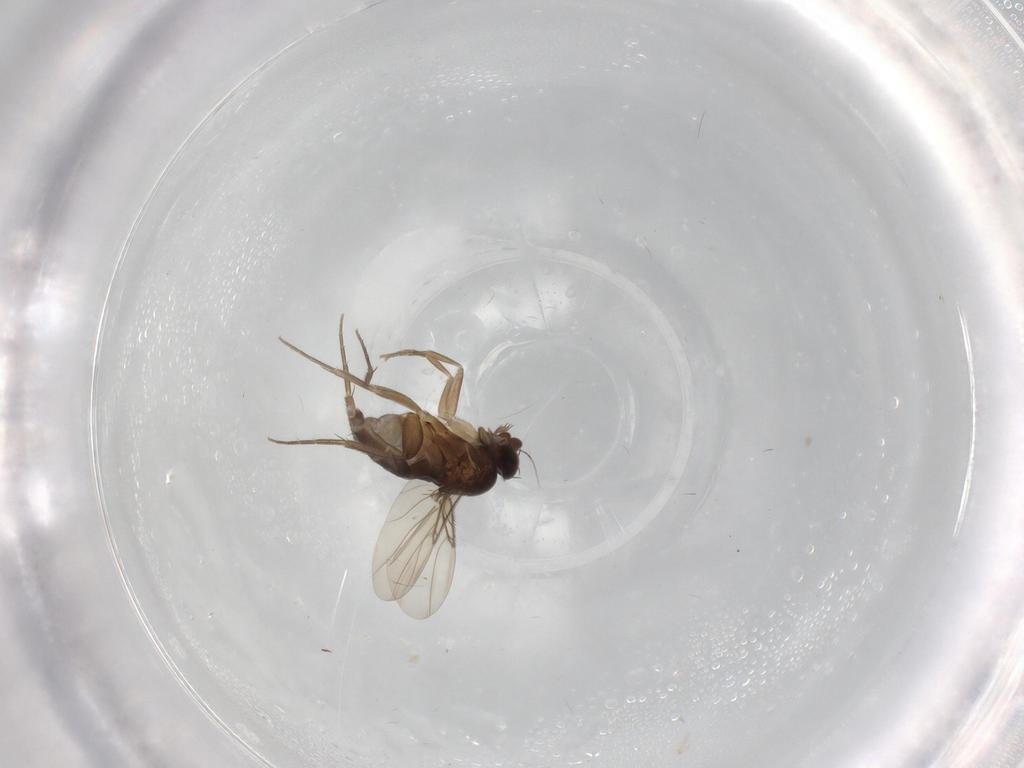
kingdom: Animalia
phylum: Arthropoda
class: Insecta
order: Diptera
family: Phoridae
